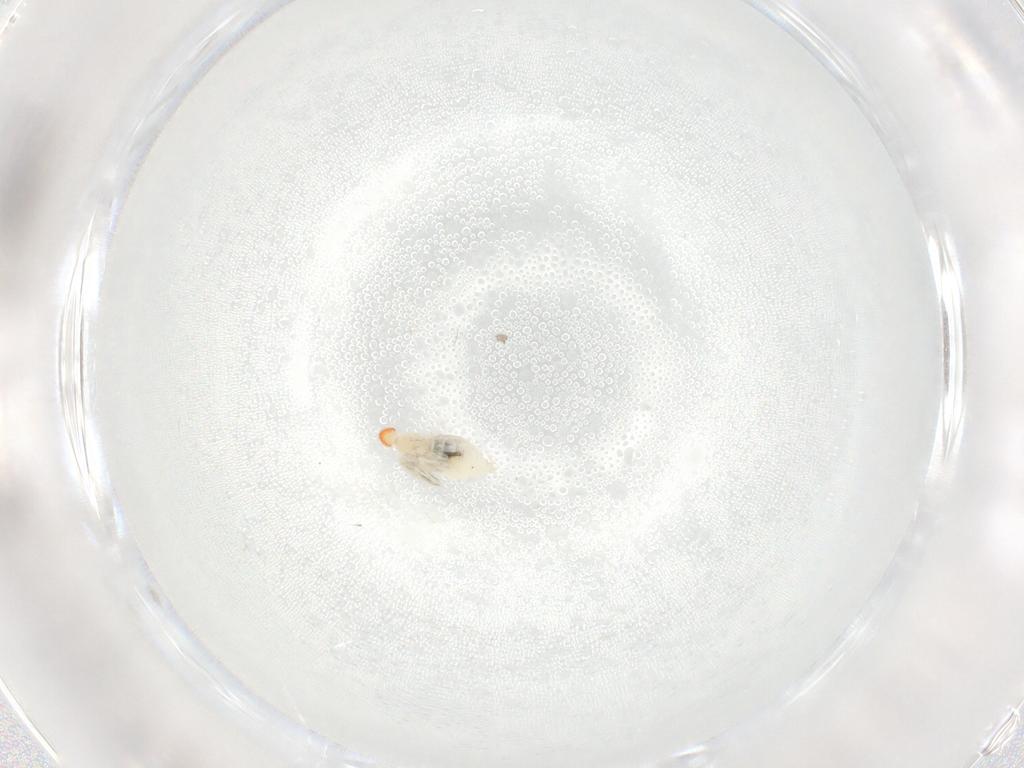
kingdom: Animalia
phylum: Arthropoda
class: Insecta
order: Diptera
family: Cecidomyiidae
